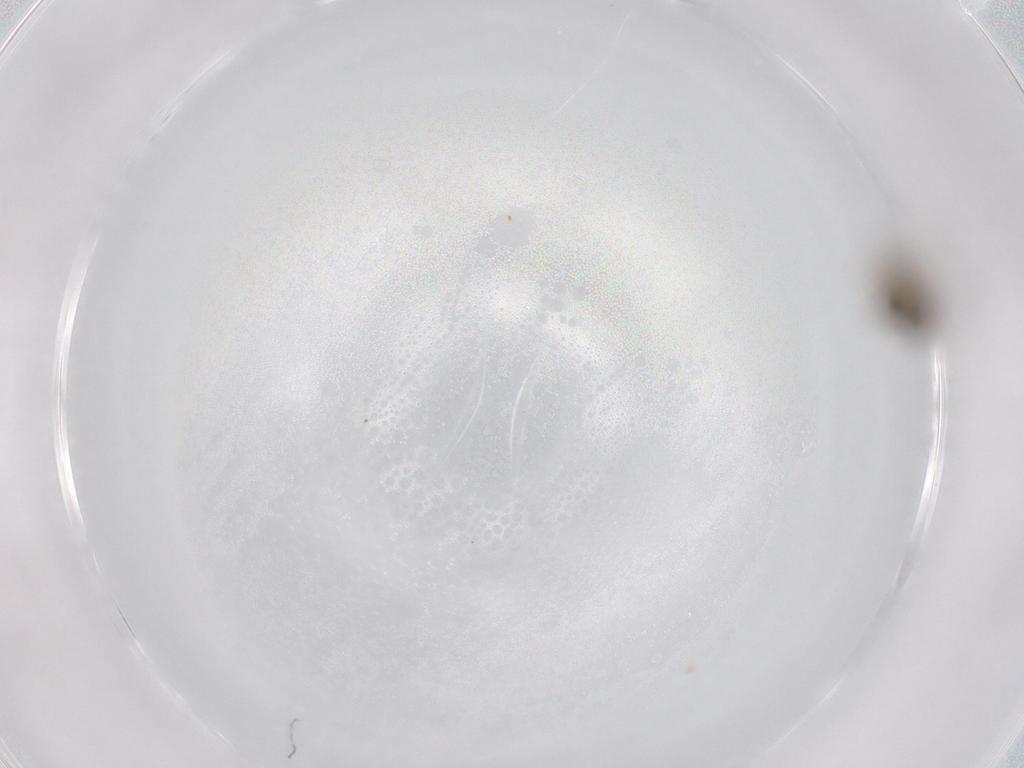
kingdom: Animalia
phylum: Arthropoda
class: Insecta
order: Diptera
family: Cecidomyiidae
